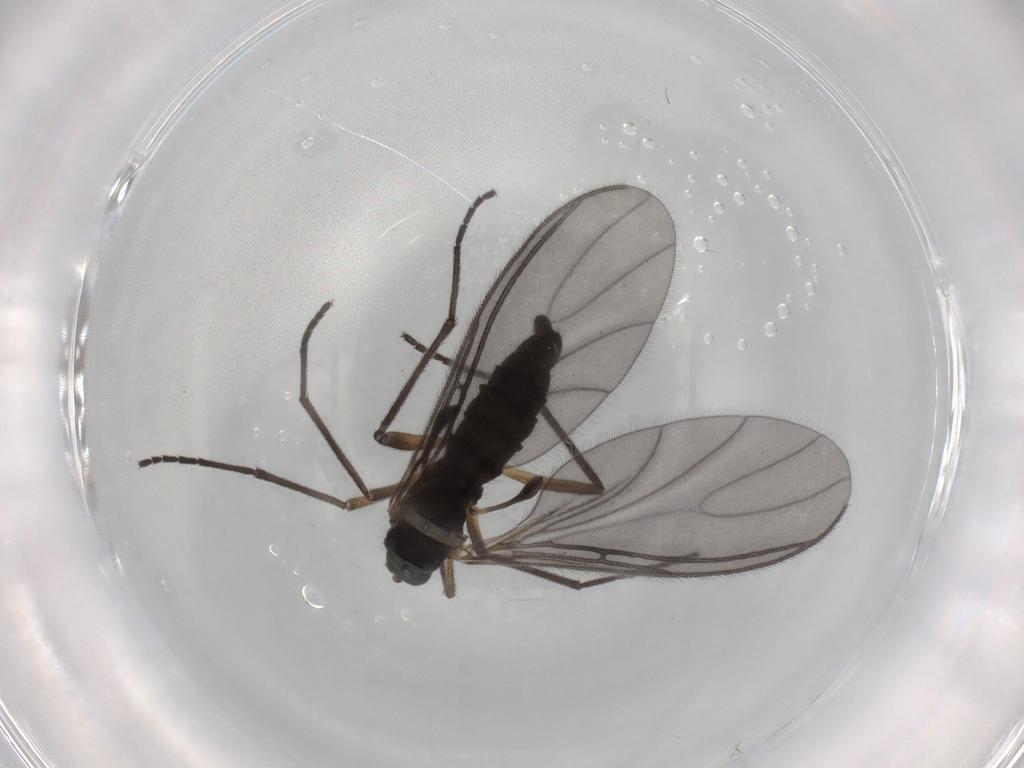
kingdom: Animalia
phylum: Arthropoda
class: Insecta
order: Diptera
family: Sciaridae
